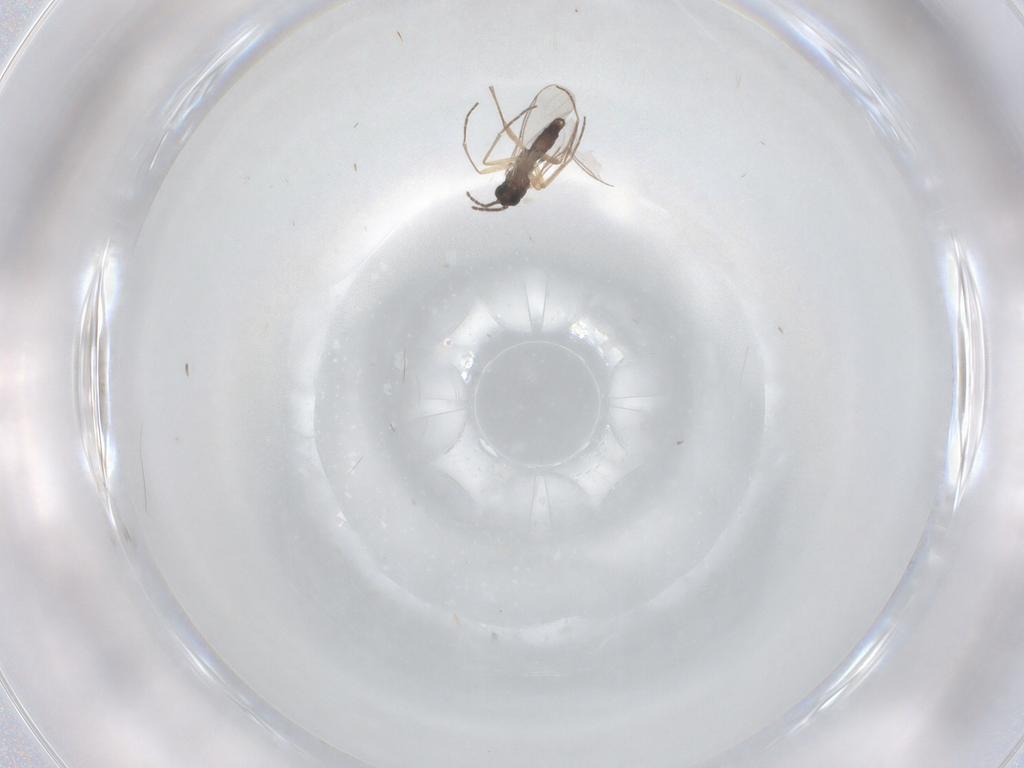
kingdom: Animalia
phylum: Arthropoda
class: Insecta
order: Diptera
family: Sciaridae
